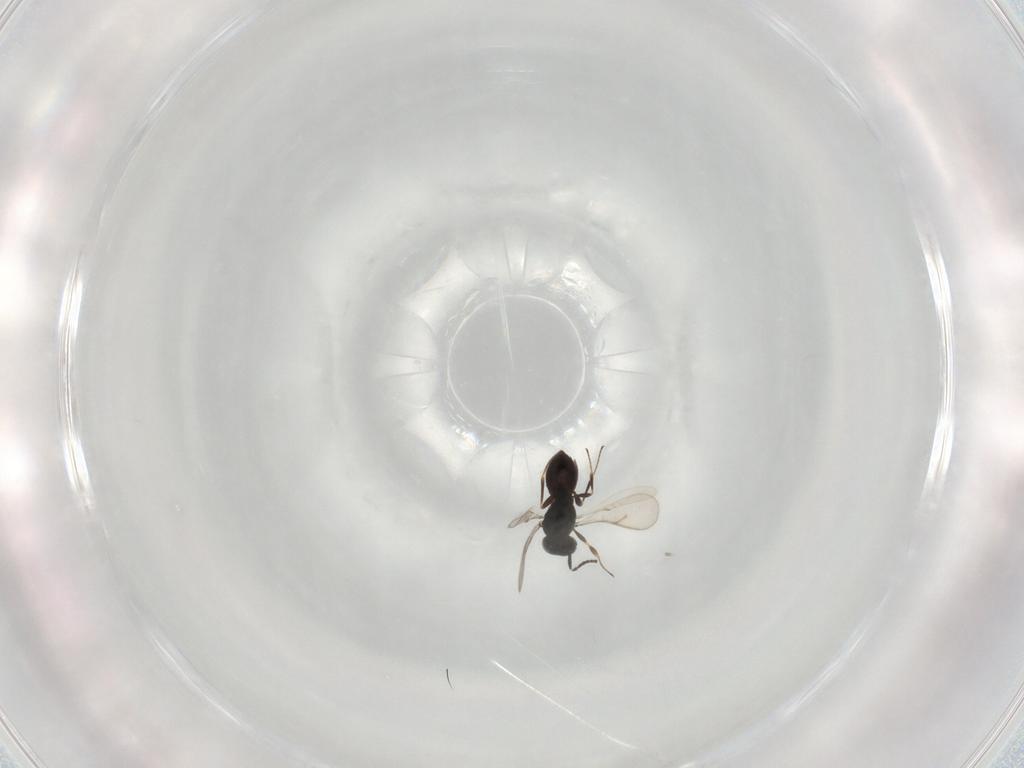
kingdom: Animalia
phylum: Arthropoda
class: Insecta
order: Hymenoptera
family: Scelionidae
